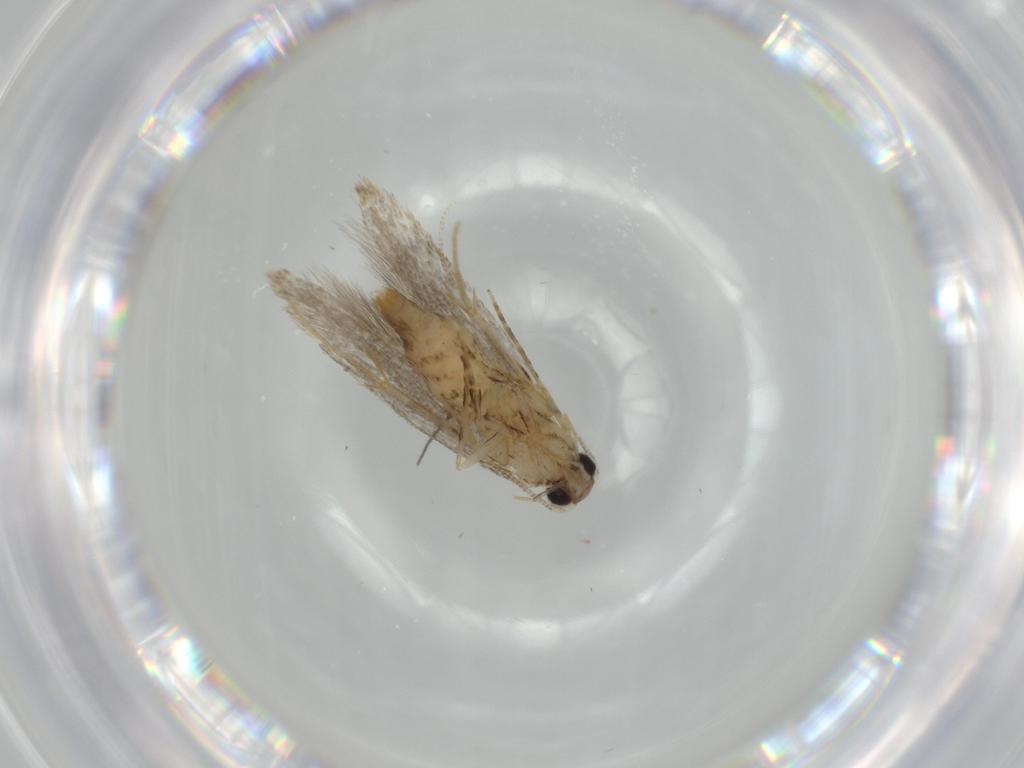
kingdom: Animalia
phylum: Arthropoda
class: Insecta
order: Lepidoptera
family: Tineidae
